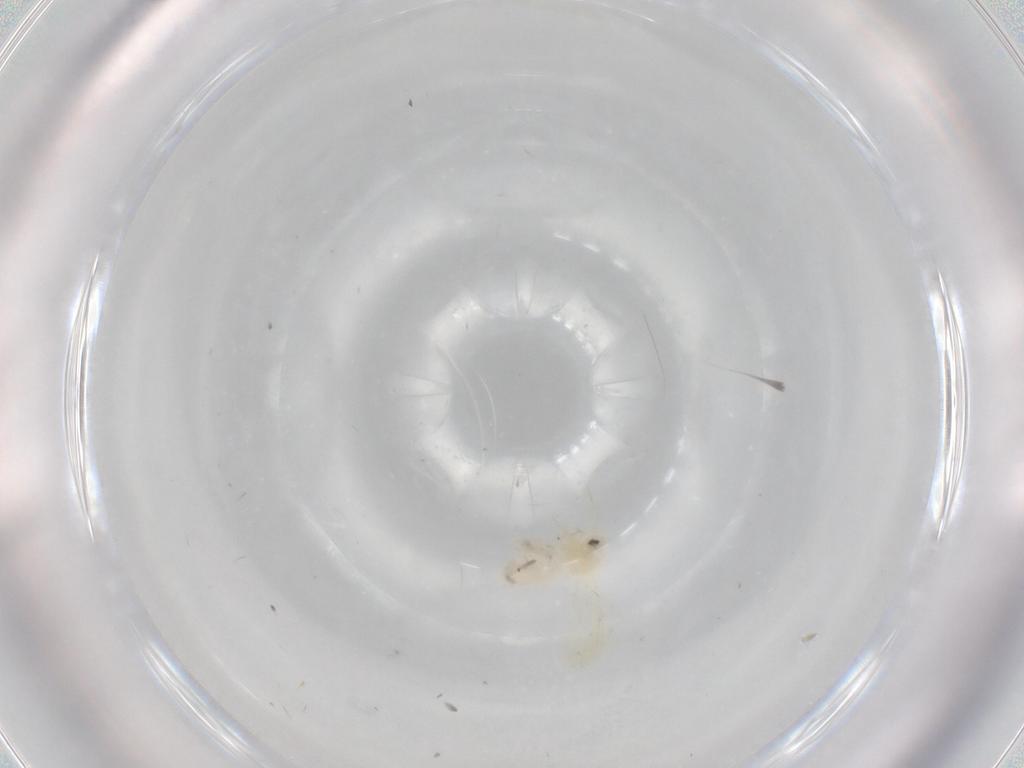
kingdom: Animalia
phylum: Arthropoda
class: Insecta
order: Hemiptera
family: Aleyrodidae
